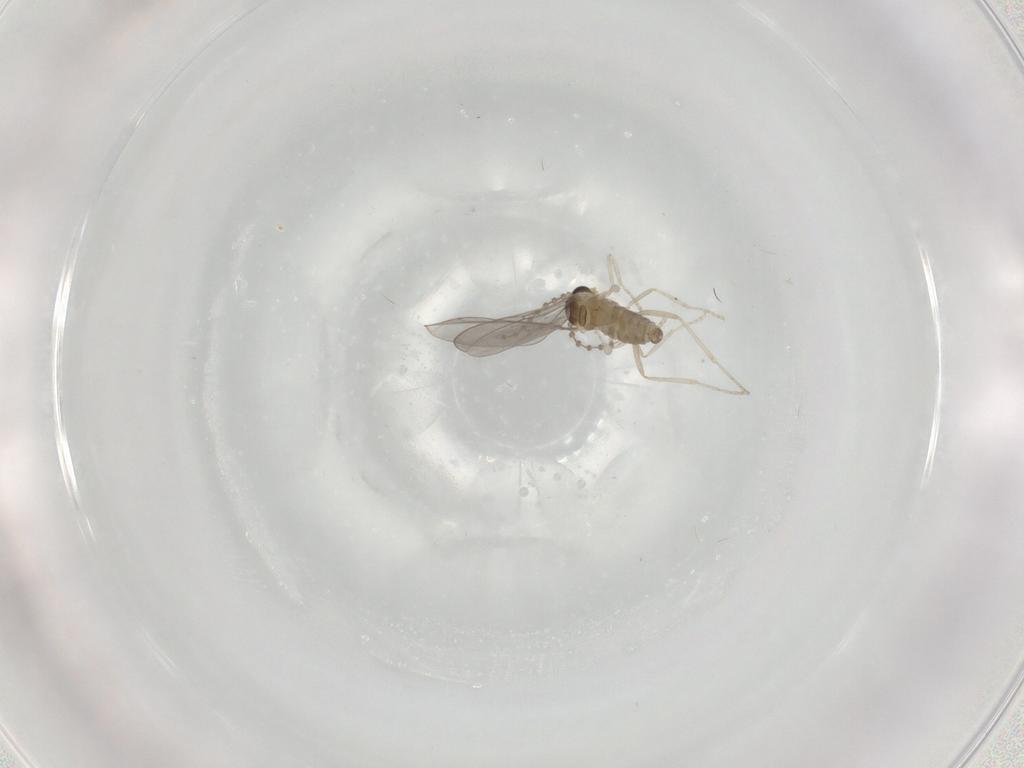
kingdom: Animalia
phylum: Arthropoda
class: Insecta
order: Diptera
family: Cecidomyiidae
